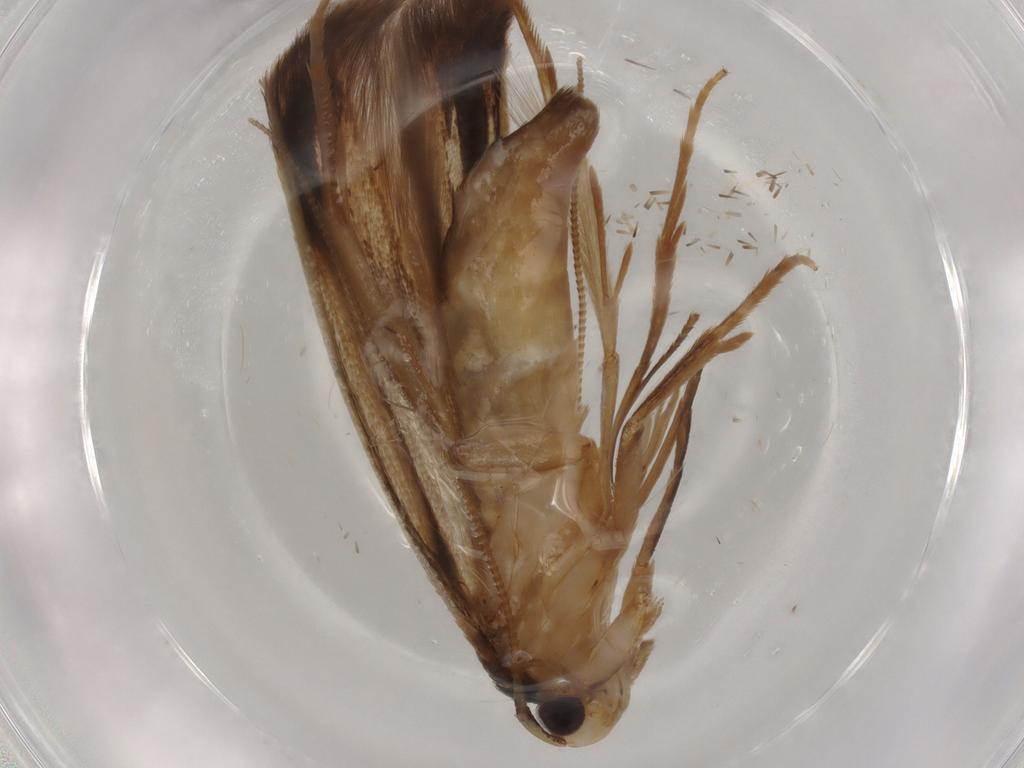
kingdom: Animalia
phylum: Arthropoda
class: Insecta
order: Lepidoptera
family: Tineidae
